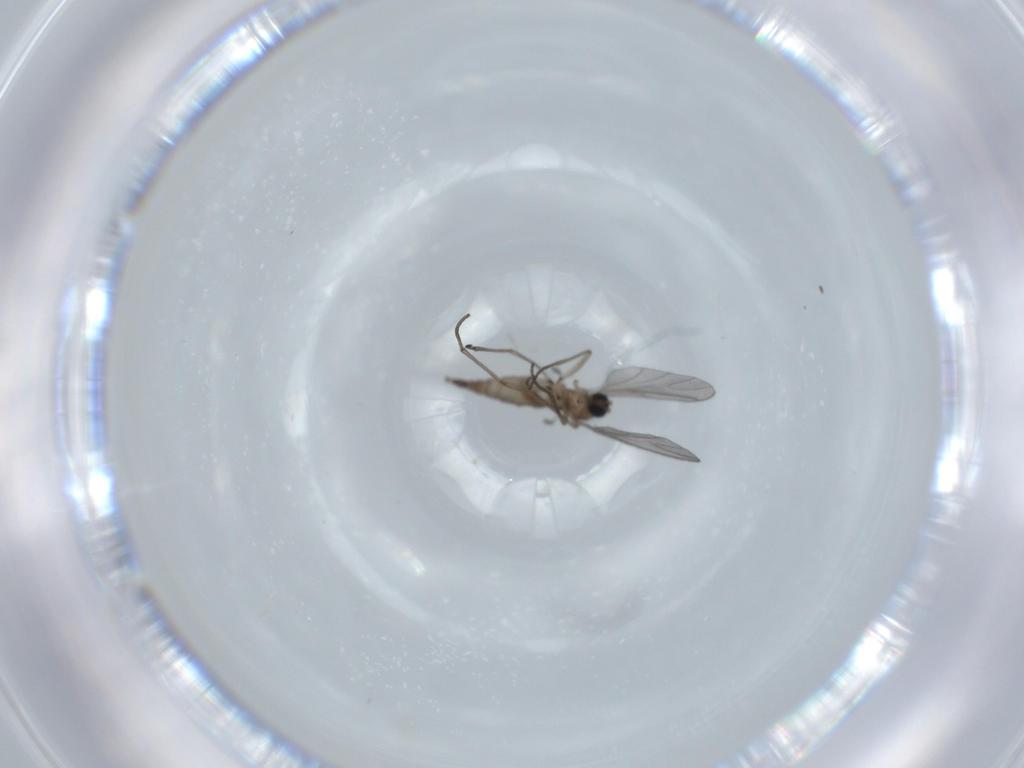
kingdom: Animalia
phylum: Arthropoda
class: Insecta
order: Diptera
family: Sciaridae
